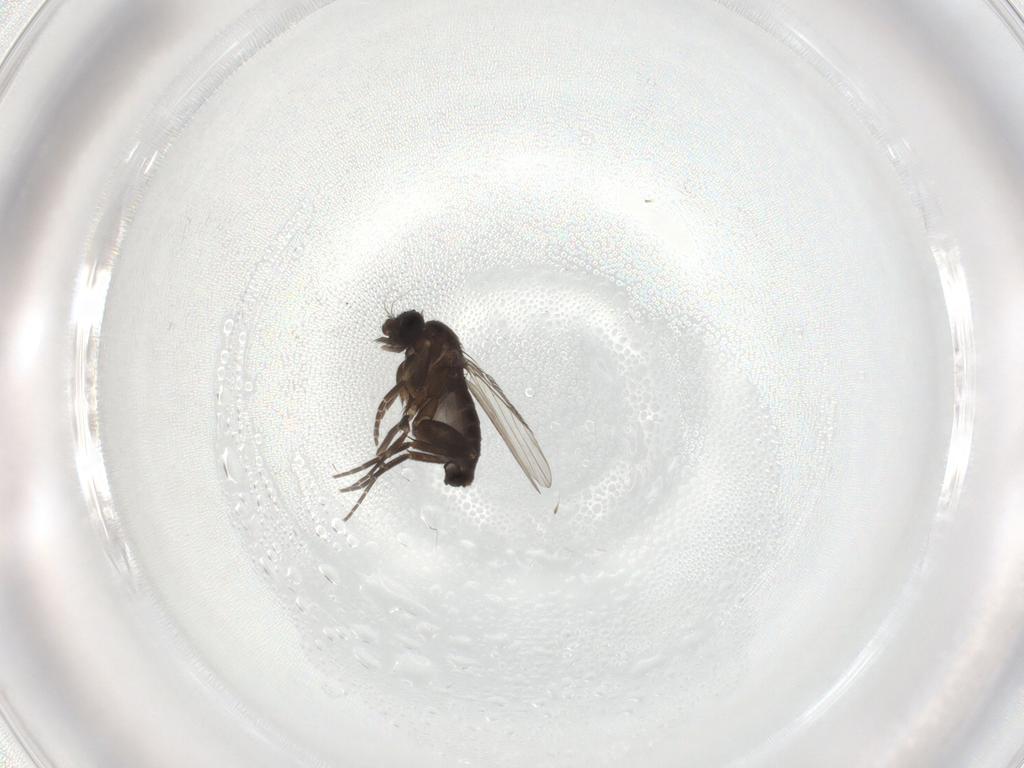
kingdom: Animalia
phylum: Arthropoda
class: Insecta
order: Diptera
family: Phoridae
